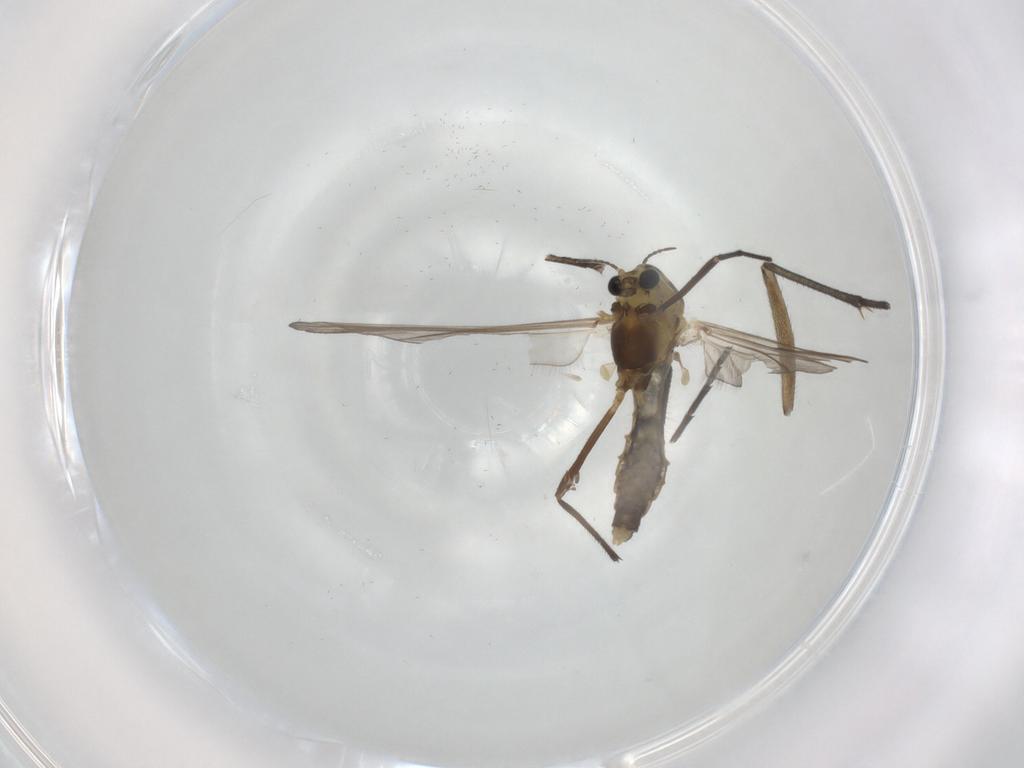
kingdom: Animalia
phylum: Arthropoda
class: Insecta
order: Diptera
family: Chironomidae
